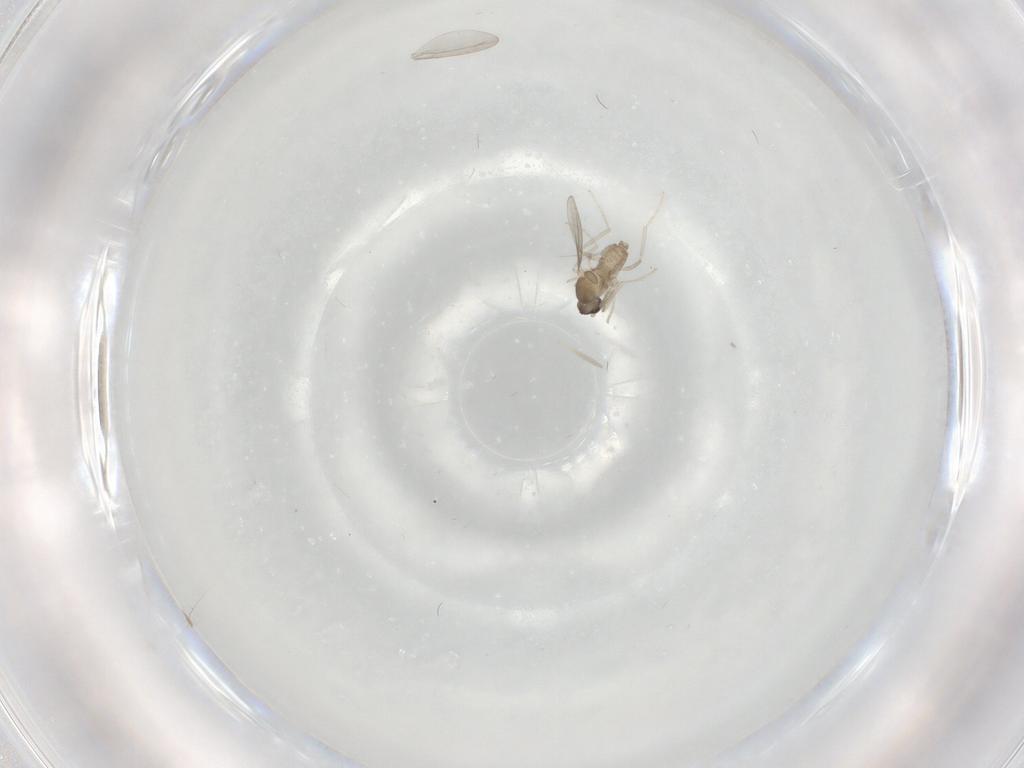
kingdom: Animalia
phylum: Arthropoda
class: Insecta
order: Diptera
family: Cecidomyiidae
